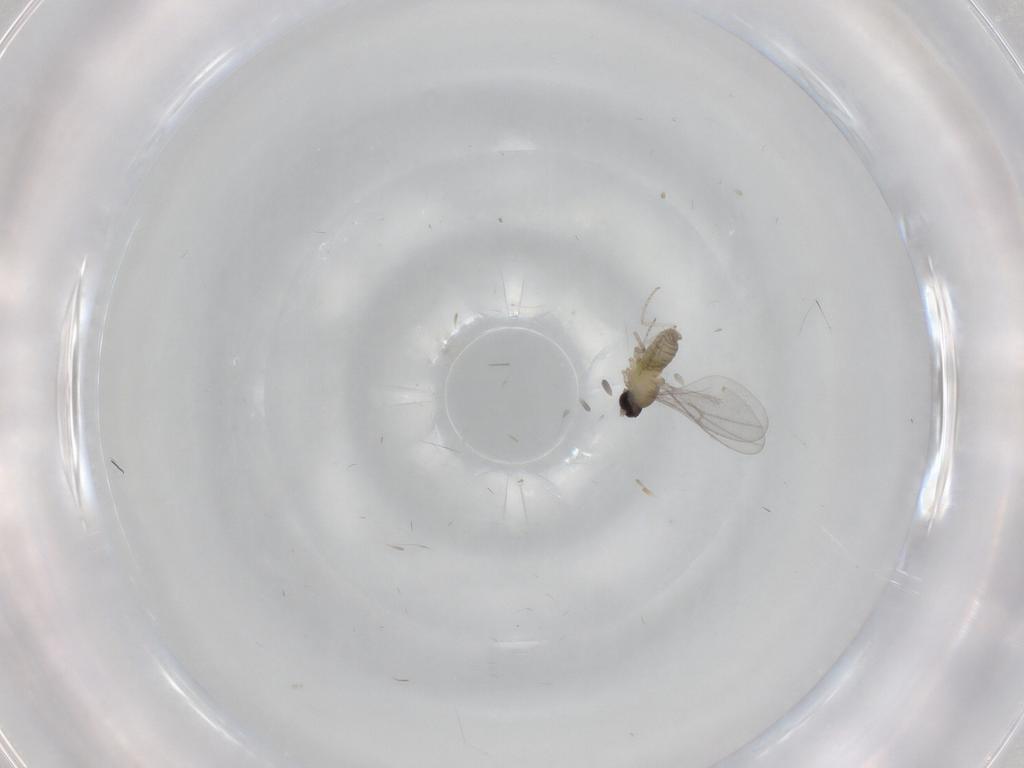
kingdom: Animalia
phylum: Arthropoda
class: Insecta
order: Diptera
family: Cecidomyiidae
